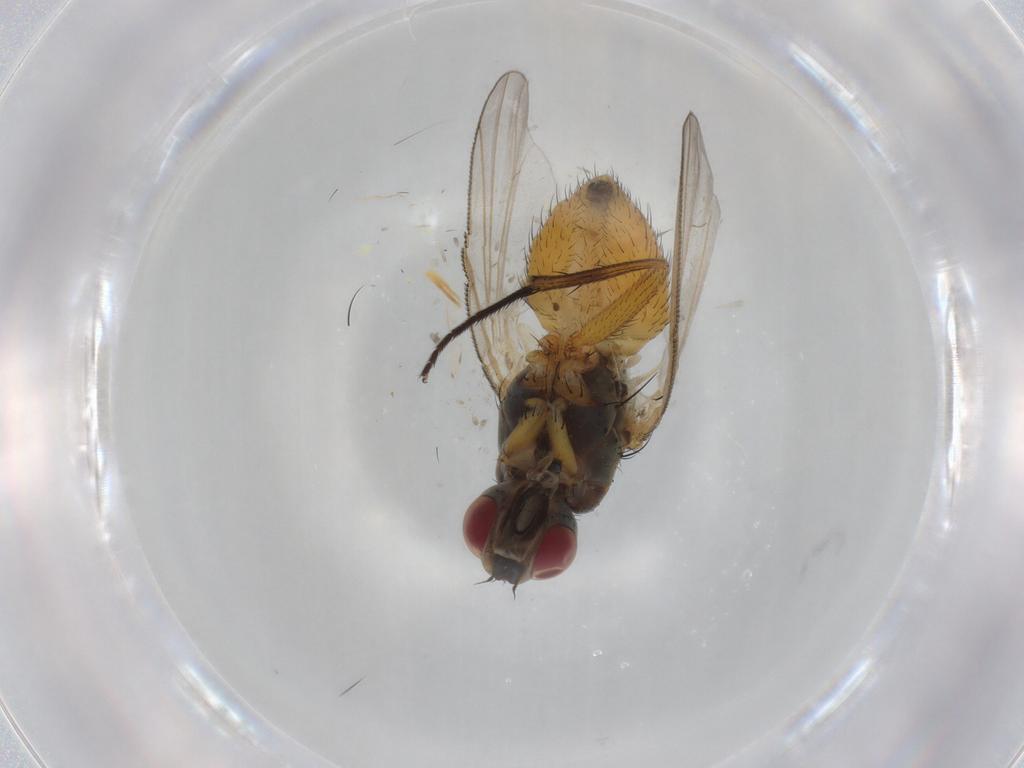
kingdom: Animalia
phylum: Arthropoda
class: Insecta
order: Diptera
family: Muscidae
